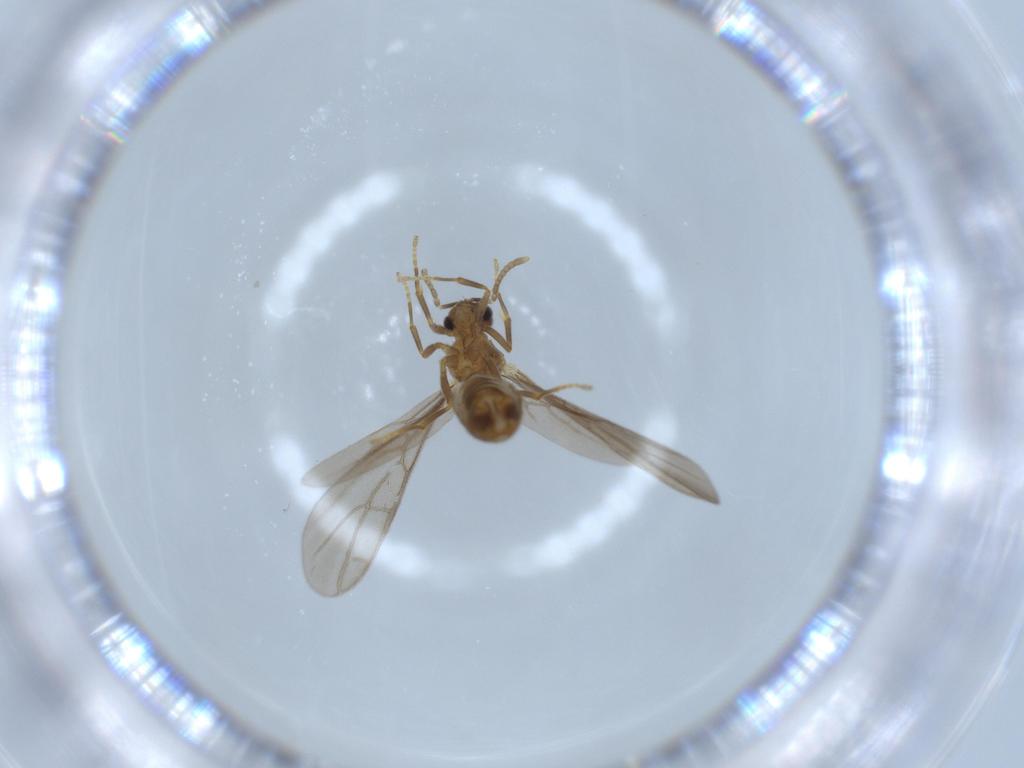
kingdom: Animalia
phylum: Arthropoda
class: Insecta
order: Hymenoptera
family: Formicidae
